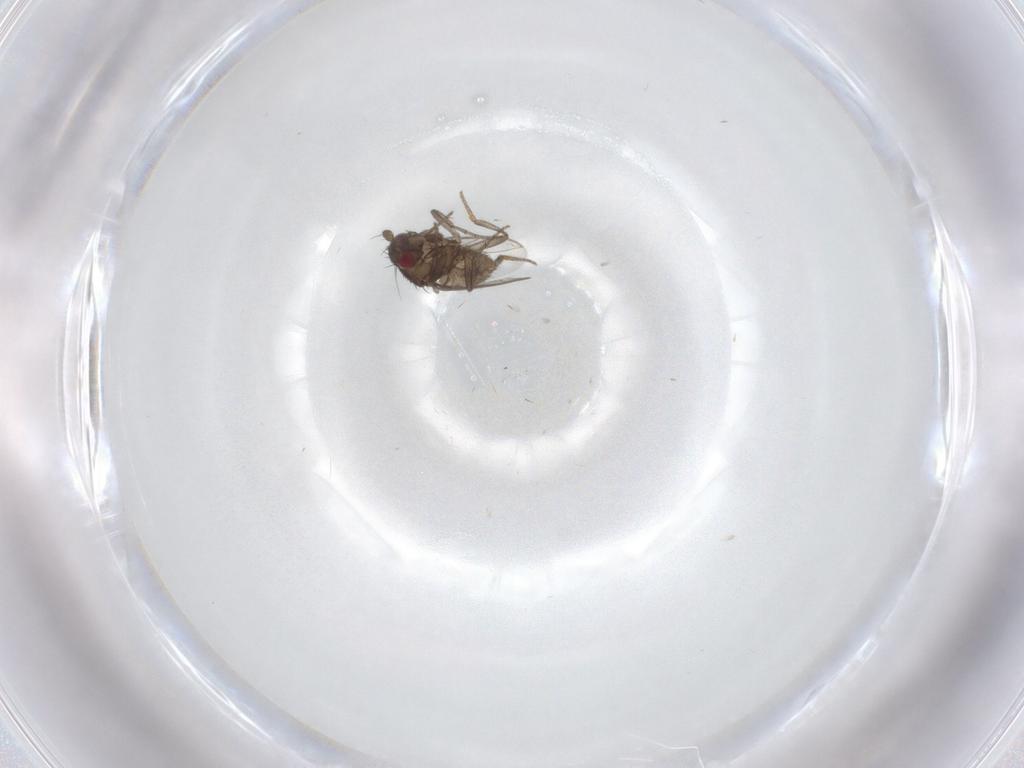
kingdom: Animalia
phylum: Arthropoda
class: Insecta
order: Diptera
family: Sphaeroceridae
